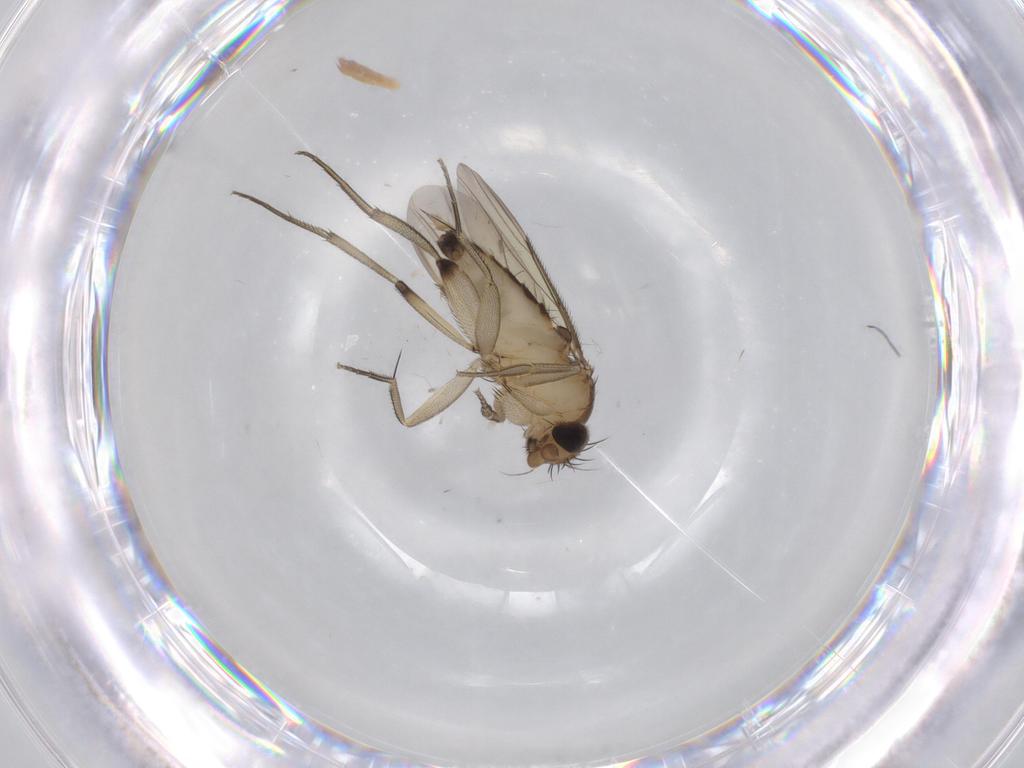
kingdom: Animalia
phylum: Arthropoda
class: Insecta
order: Diptera
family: Phoridae
